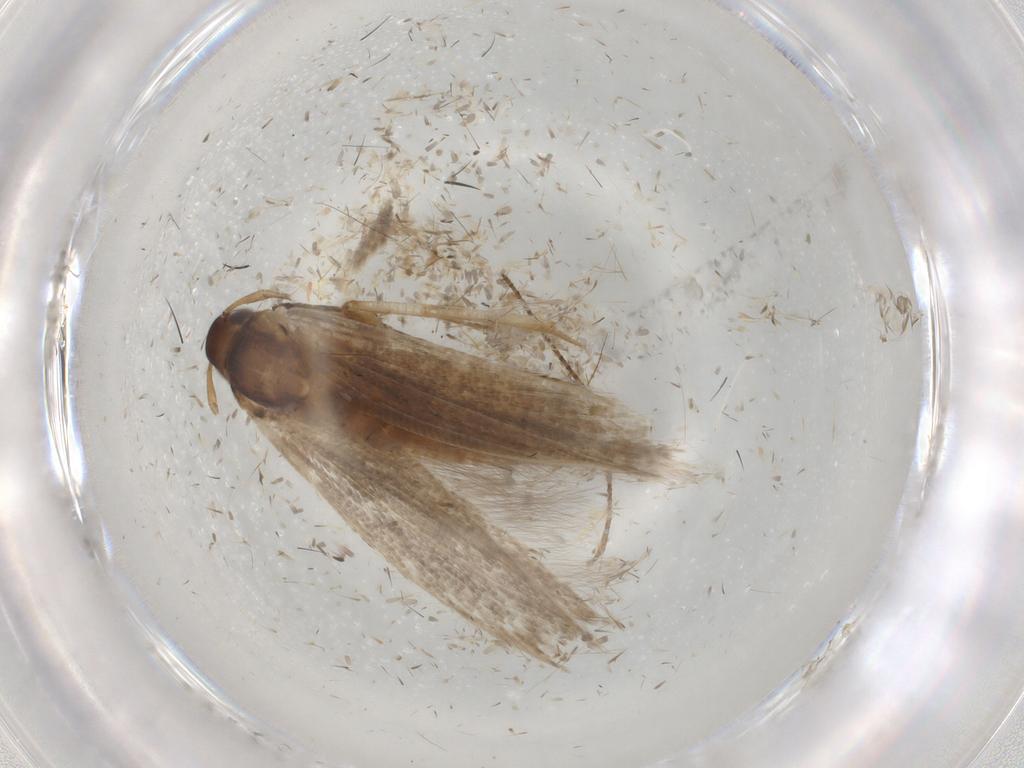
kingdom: Animalia
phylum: Arthropoda
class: Insecta
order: Lepidoptera
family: Cosmopterigidae
